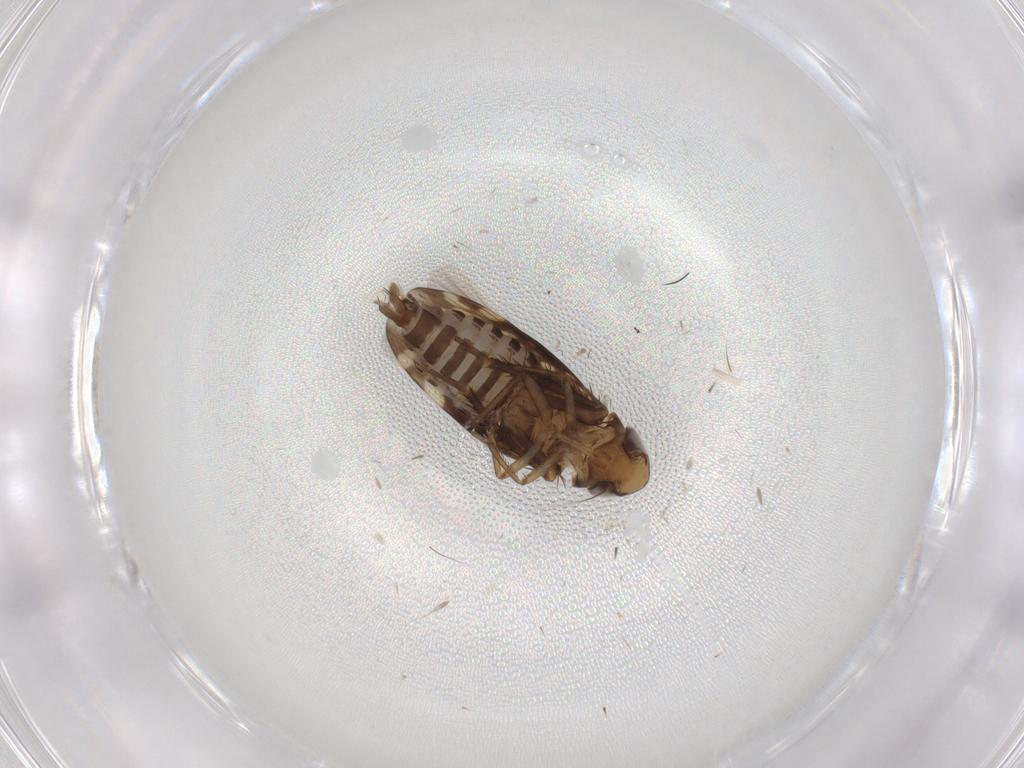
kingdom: Animalia
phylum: Arthropoda
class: Insecta
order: Hemiptera
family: Cicadellidae
